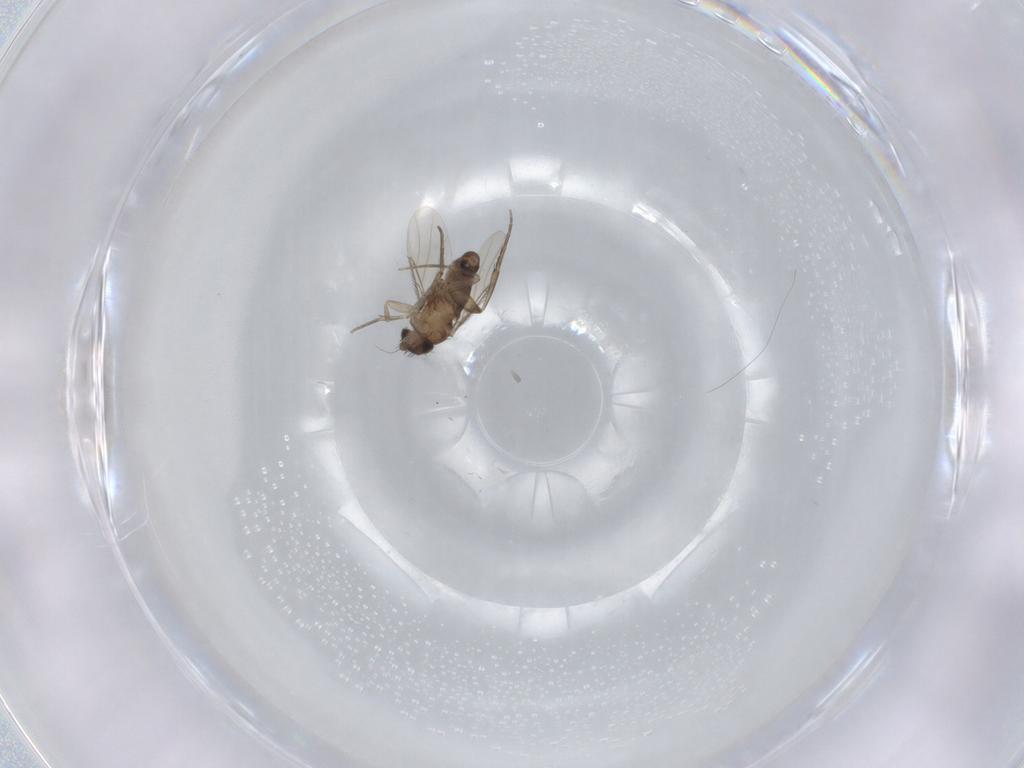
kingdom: Animalia
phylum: Arthropoda
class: Insecta
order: Diptera
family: Phoridae
